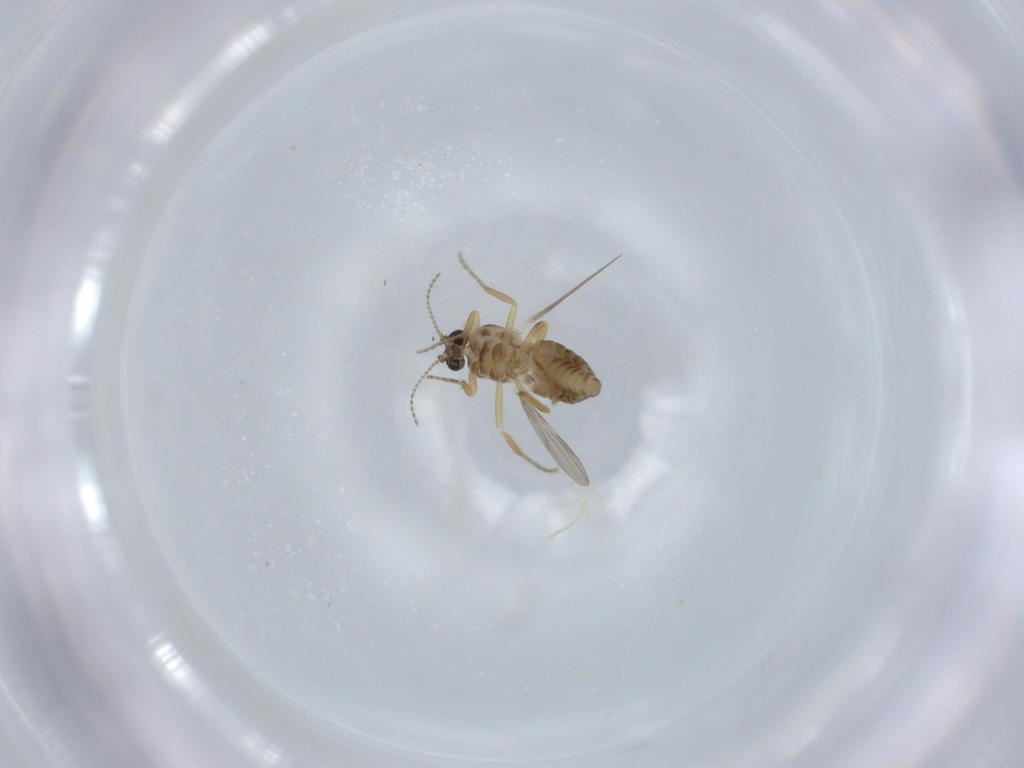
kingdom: Animalia
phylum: Arthropoda
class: Insecta
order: Diptera
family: Ceratopogonidae
